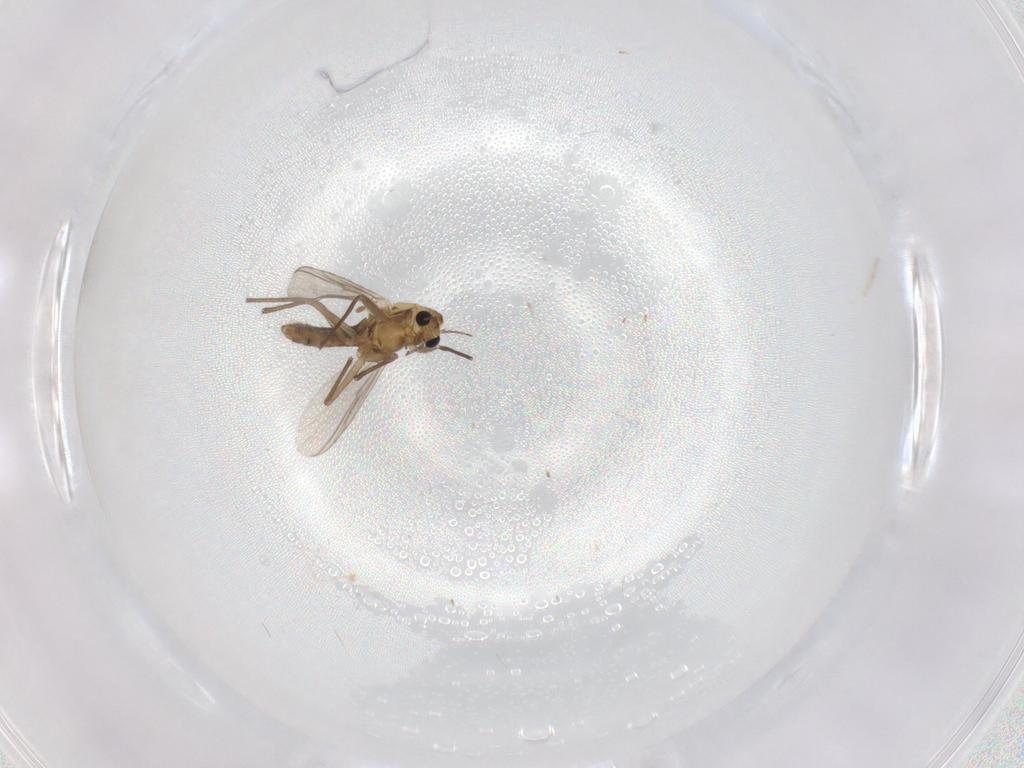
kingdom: Animalia
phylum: Arthropoda
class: Insecta
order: Diptera
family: Chironomidae
